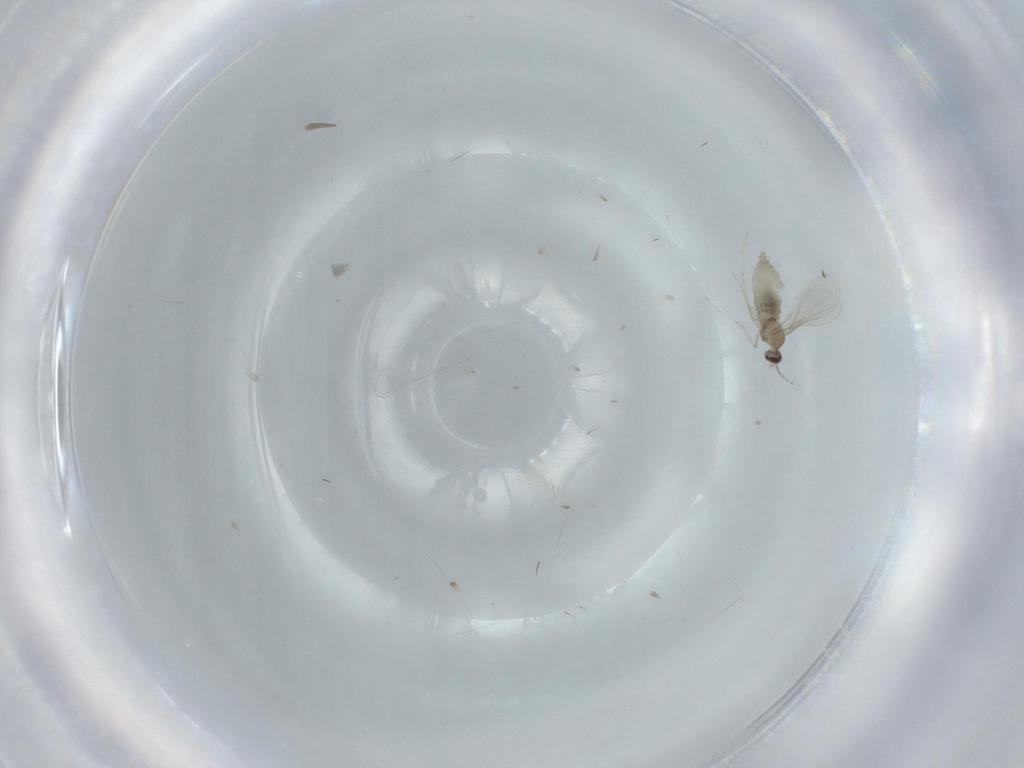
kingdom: Animalia
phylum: Arthropoda
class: Insecta
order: Diptera
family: Cecidomyiidae
